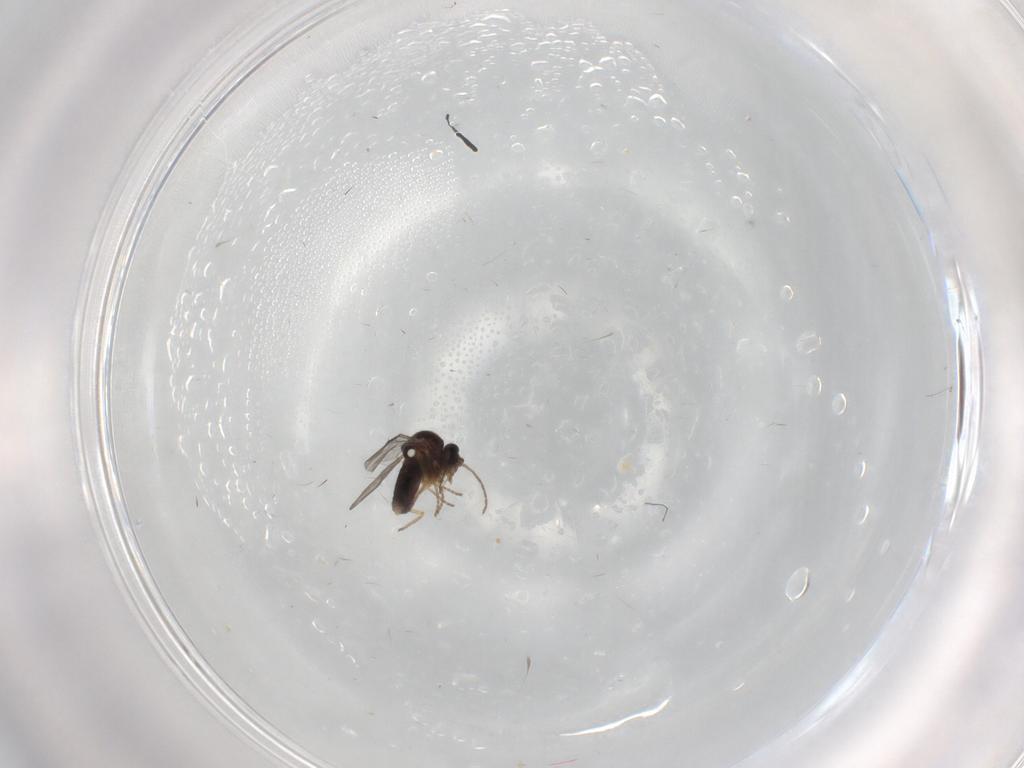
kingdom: Animalia
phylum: Arthropoda
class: Insecta
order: Diptera
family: Ceratopogonidae
